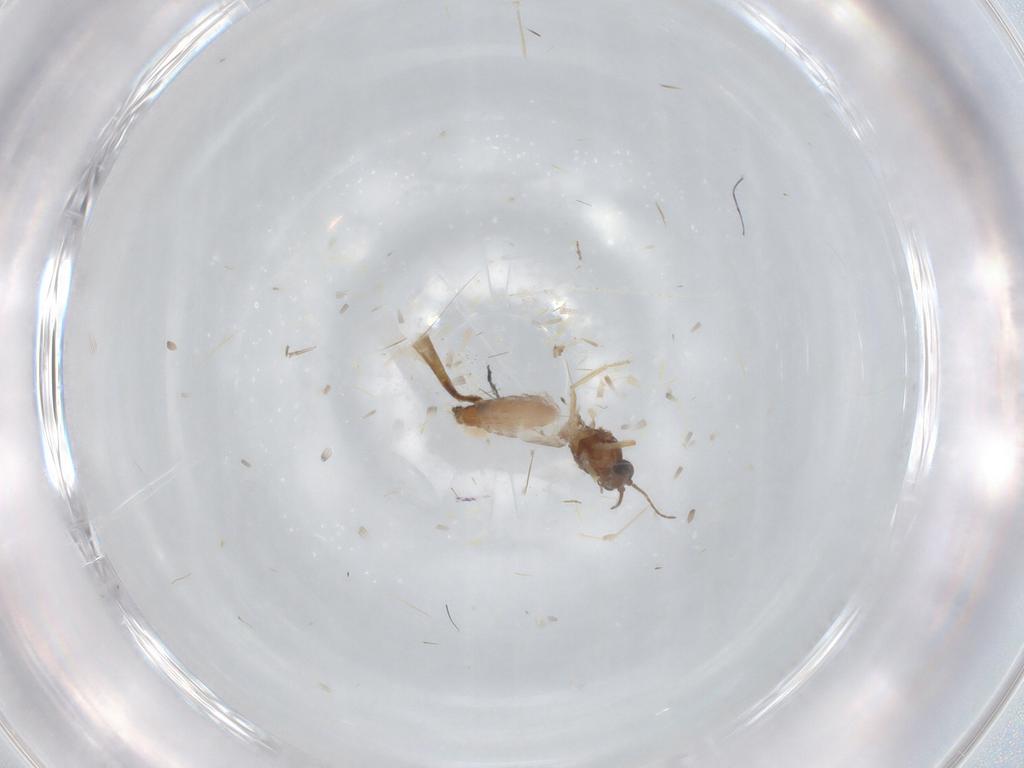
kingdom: Animalia
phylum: Arthropoda
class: Insecta
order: Diptera
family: Ceratopogonidae
